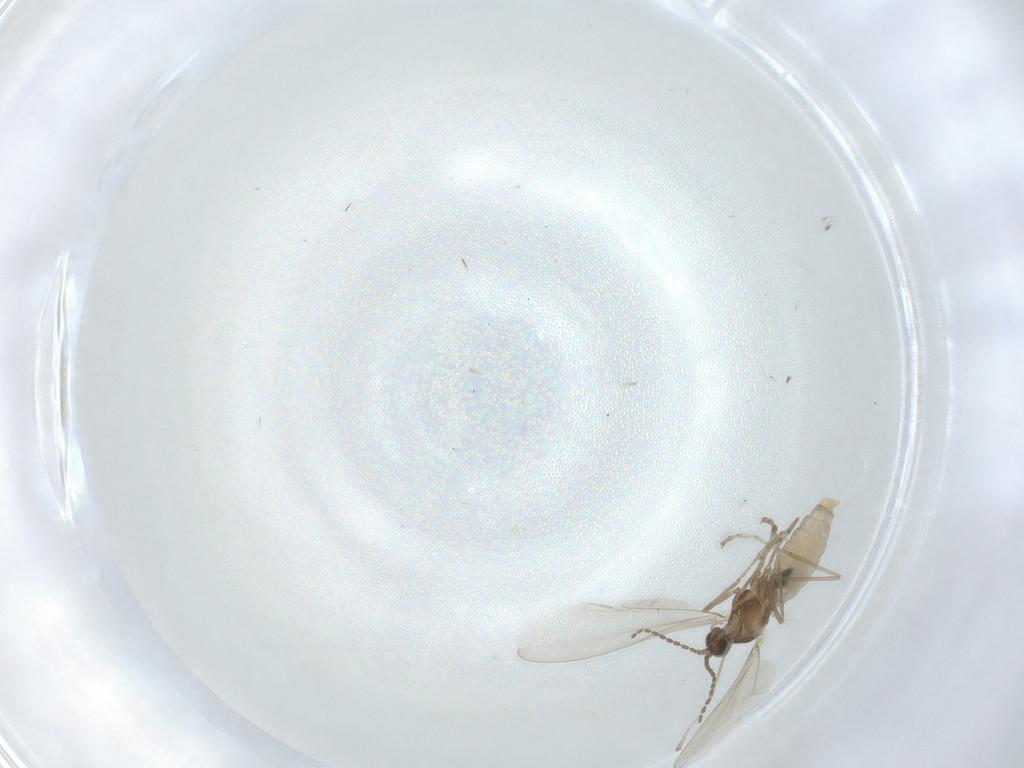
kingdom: Animalia
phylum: Arthropoda
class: Insecta
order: Diptera
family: Cecidomyiidae
